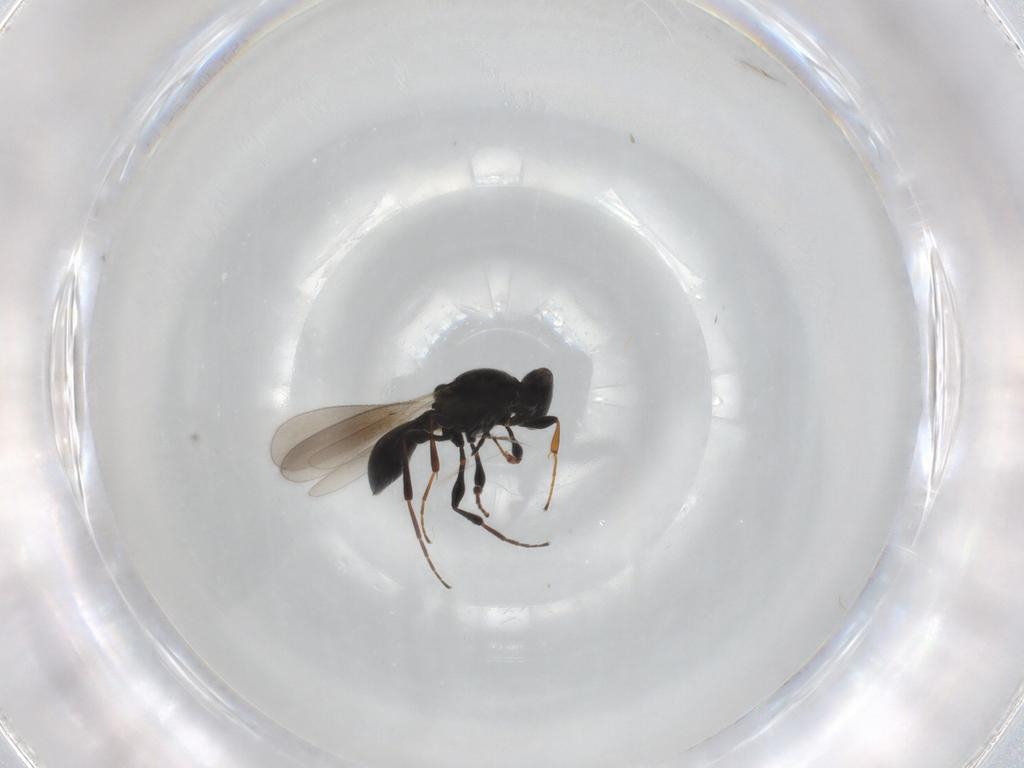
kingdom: Animalia
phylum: Arthropoda
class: Insecta
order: Hymenoptera
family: Platygastridae
